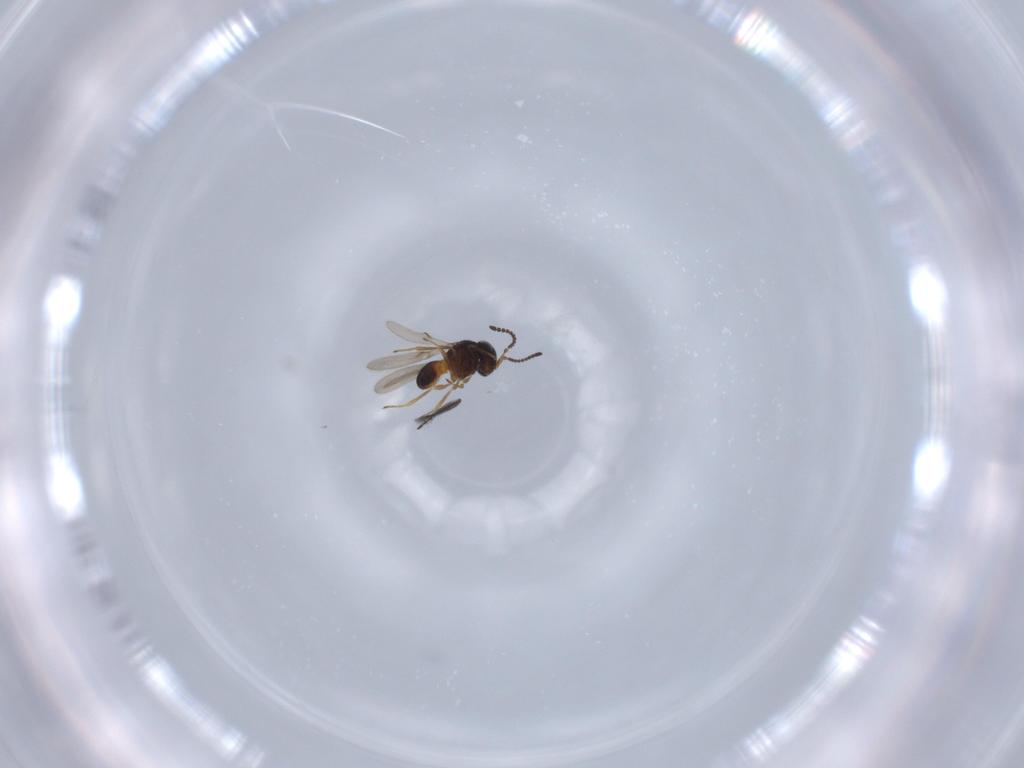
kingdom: Animalia
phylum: Arthropoda
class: Insecta
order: Hymenoptera
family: Scelionidae
